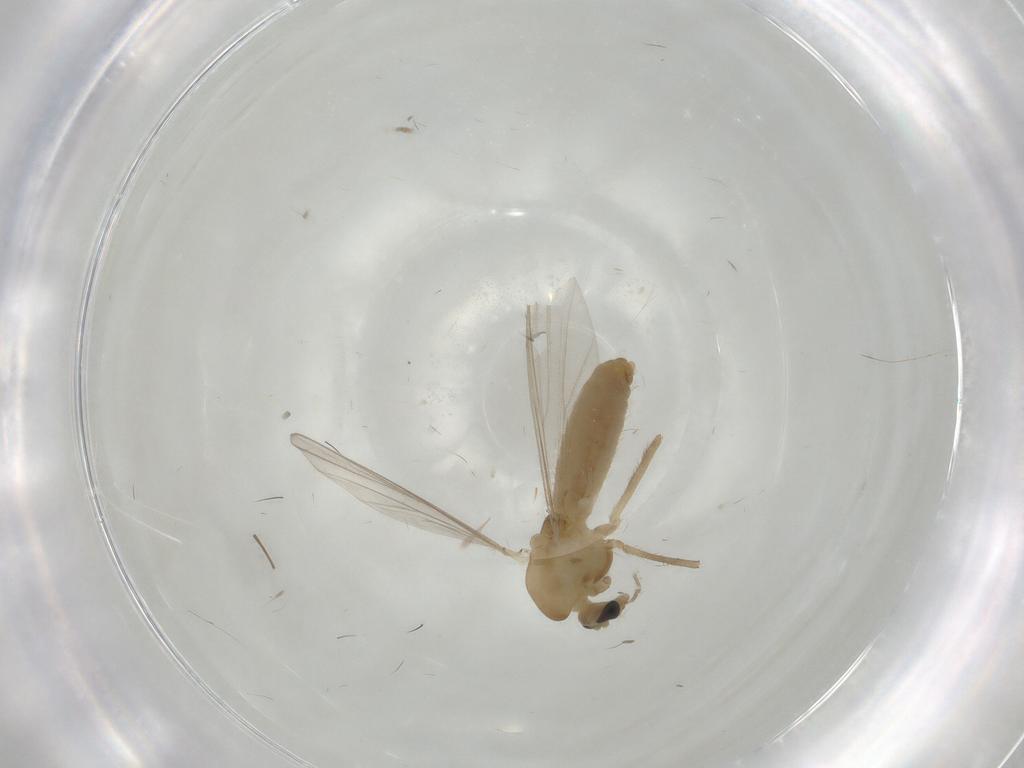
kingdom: Animalia
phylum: Arthropoda
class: Insecta
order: Diptera
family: Chironomidae
